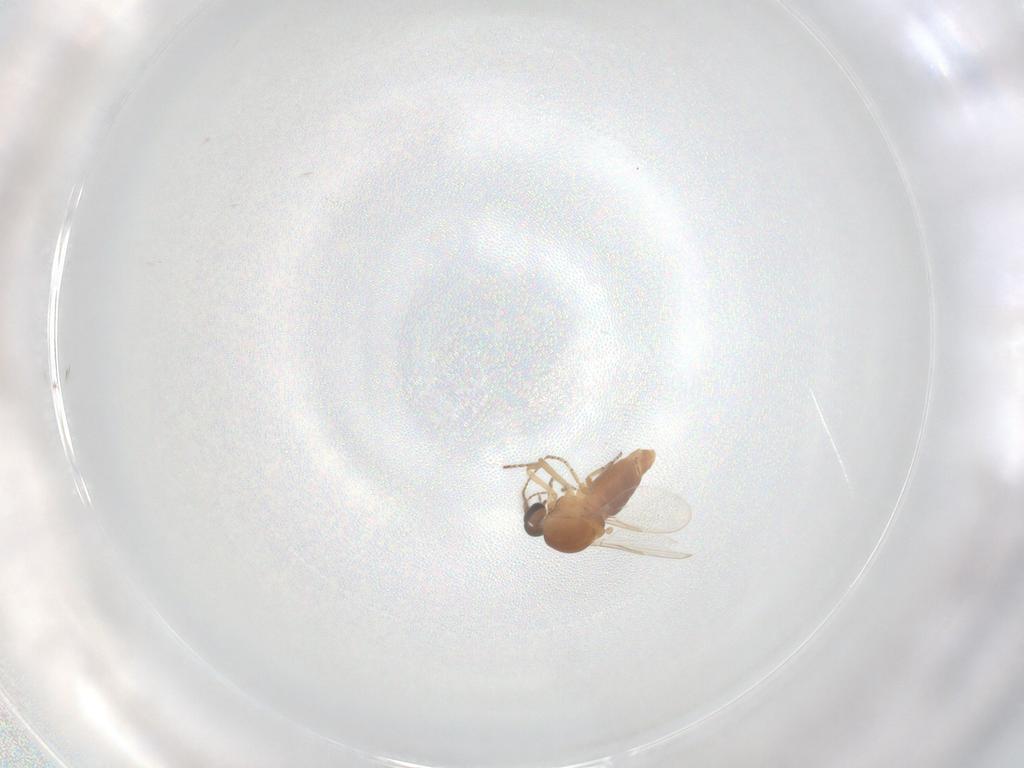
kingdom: Animalia
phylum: Arthropoda
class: Insecta
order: Diptera
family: Ceratopogonidae
